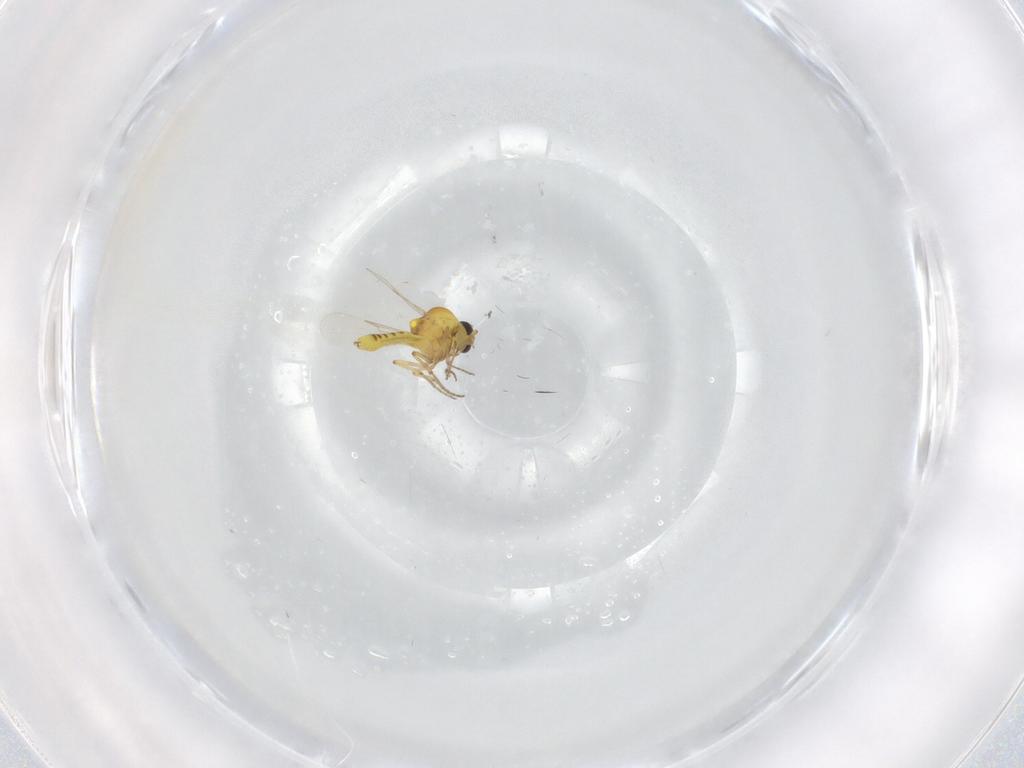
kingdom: Animalia
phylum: Arthropoda
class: Insecta
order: Diptera
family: Ceratopogonidae
